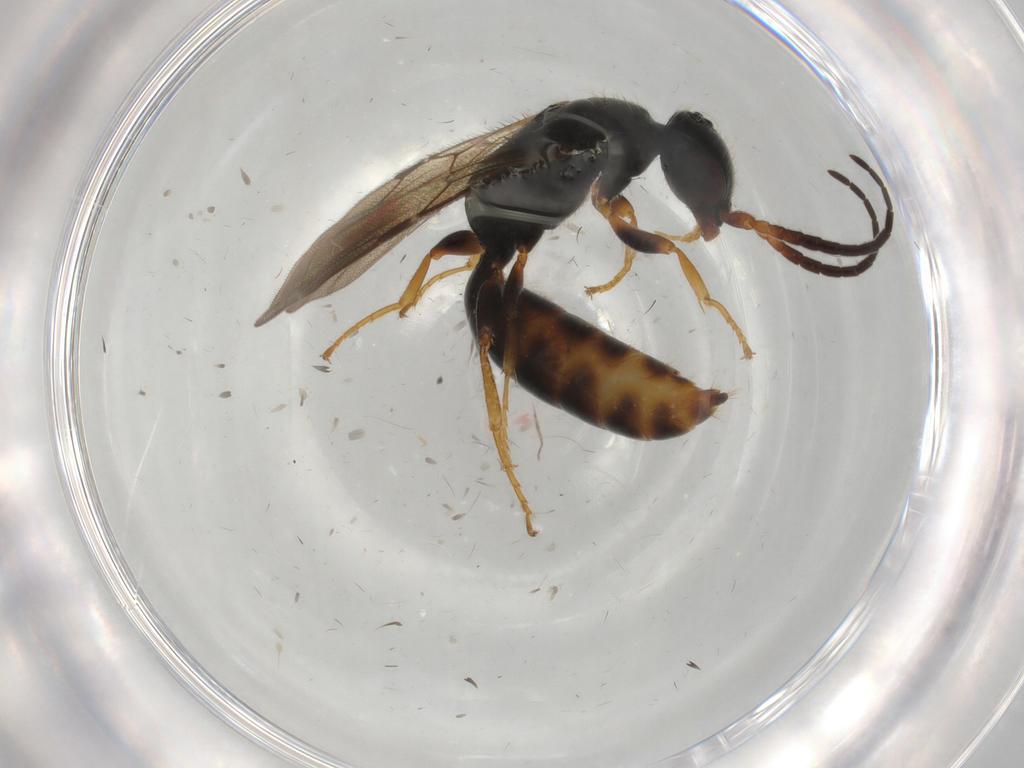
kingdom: Animalia
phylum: Arthropoda
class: Insecta
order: Hymenoptera
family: Bethylidae
